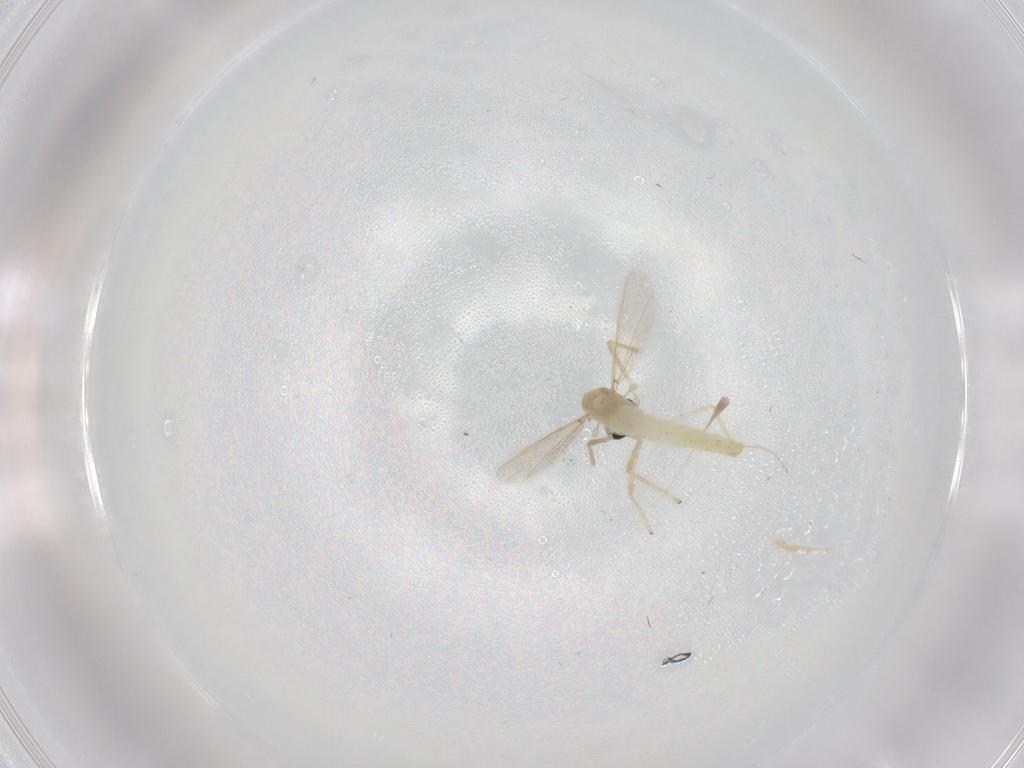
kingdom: Animalia
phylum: Arthropoda
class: Insecta
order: Diptera
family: Chironomidae
